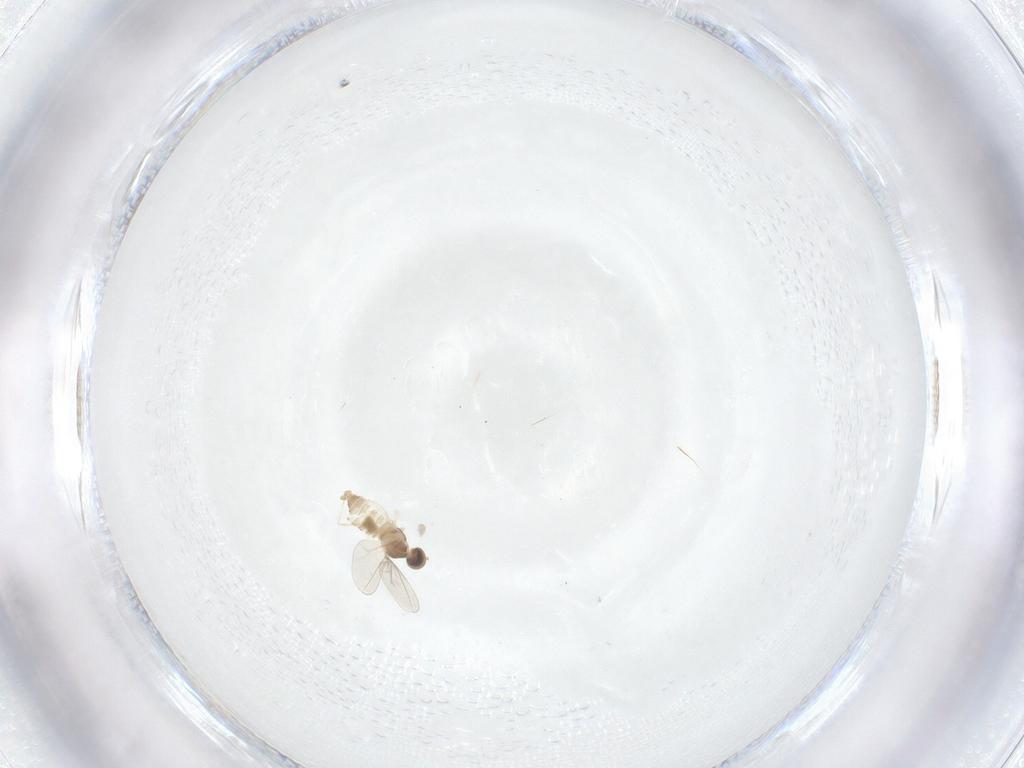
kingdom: Animalia
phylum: Arthropoda
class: Insecta
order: Diptera
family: Cecidomyiidae
